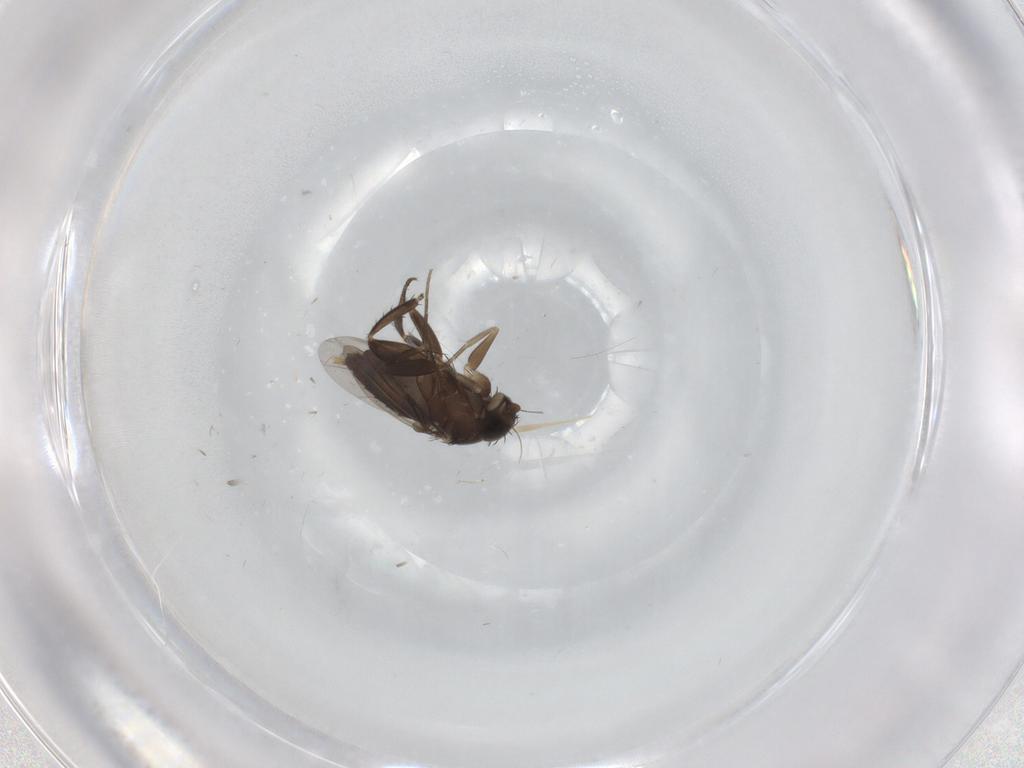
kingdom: Animalia
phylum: Arthropoda
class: Insecta
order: Diptera
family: Phoridae
